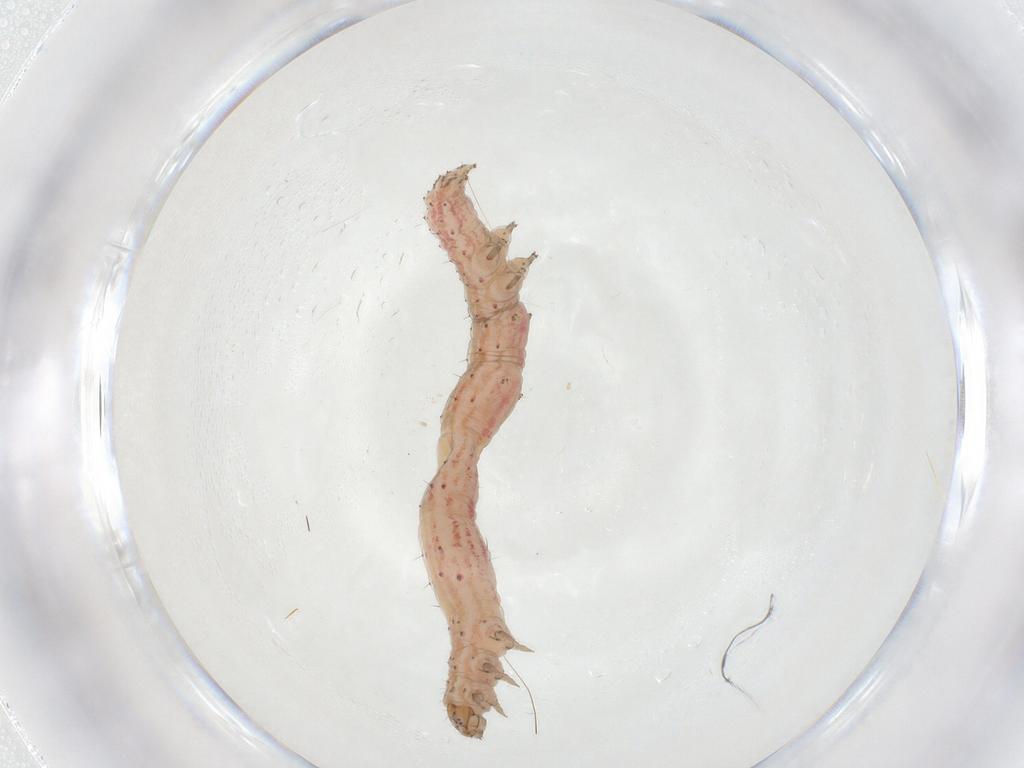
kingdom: Animalia
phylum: Arthropoda
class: Insecta
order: Lepidoptera
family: Erebidae
